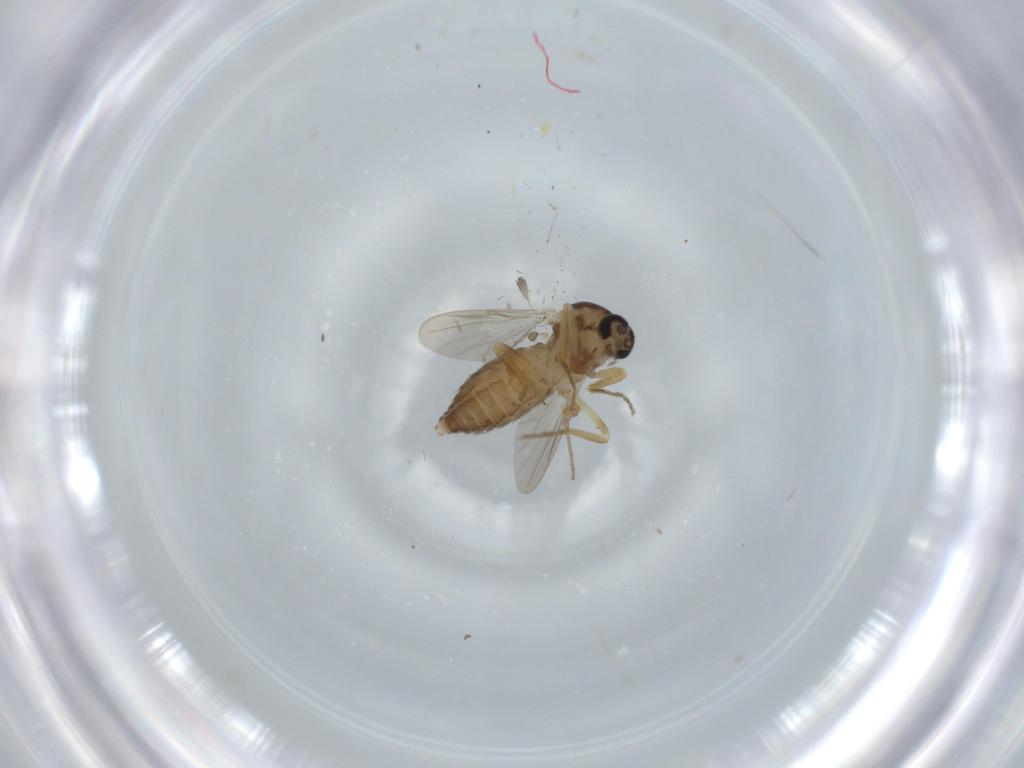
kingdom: Animalia
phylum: Arthropoda
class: Insecta
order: Diptera
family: Ceratopogonidae
